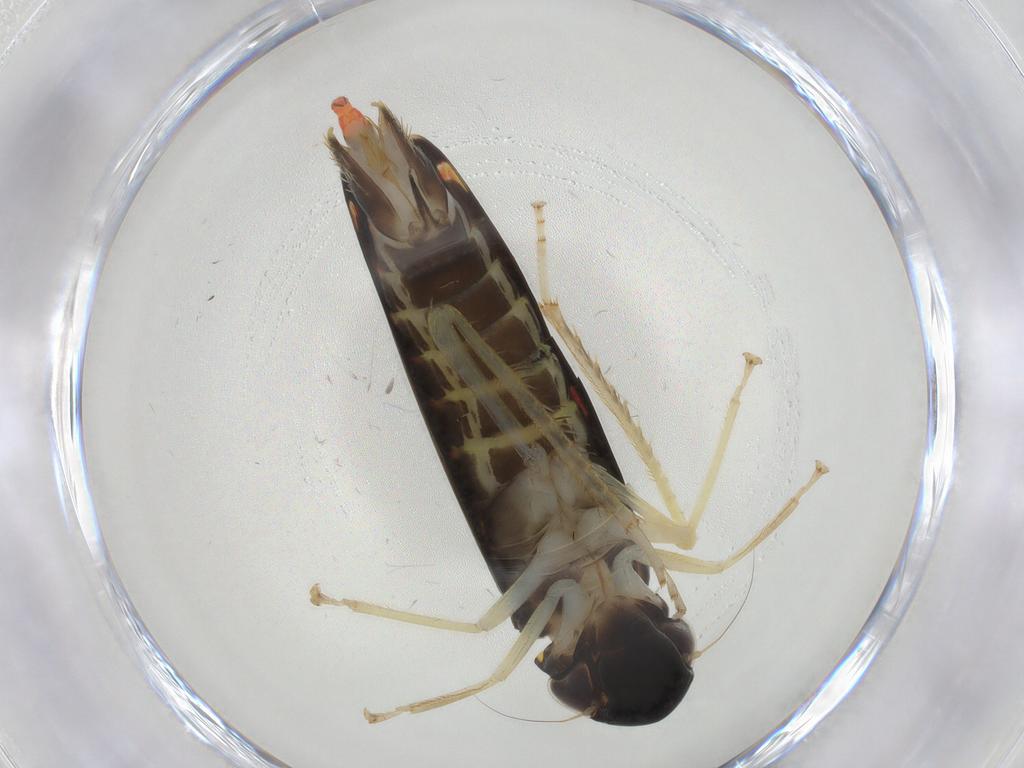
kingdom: Animalia
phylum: Arthropoda
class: Insecta
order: Hemiptera
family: Cicadellidae
